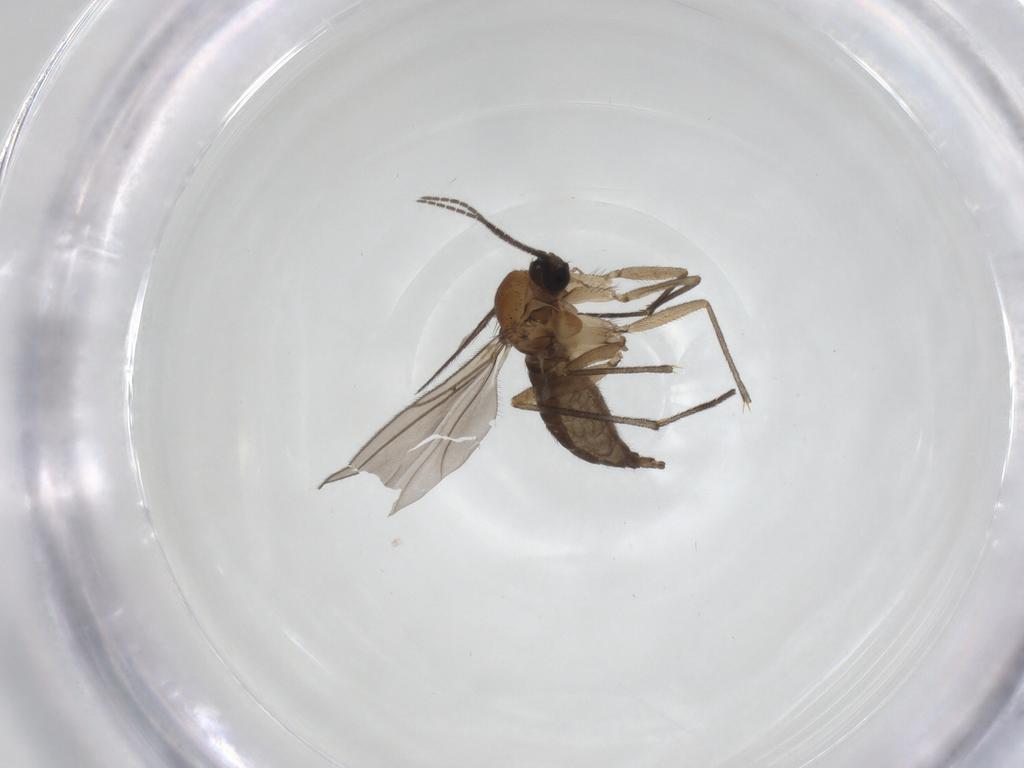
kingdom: Animalia
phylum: Arthropoda
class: Insecta
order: Diptera
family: Sciaridae
